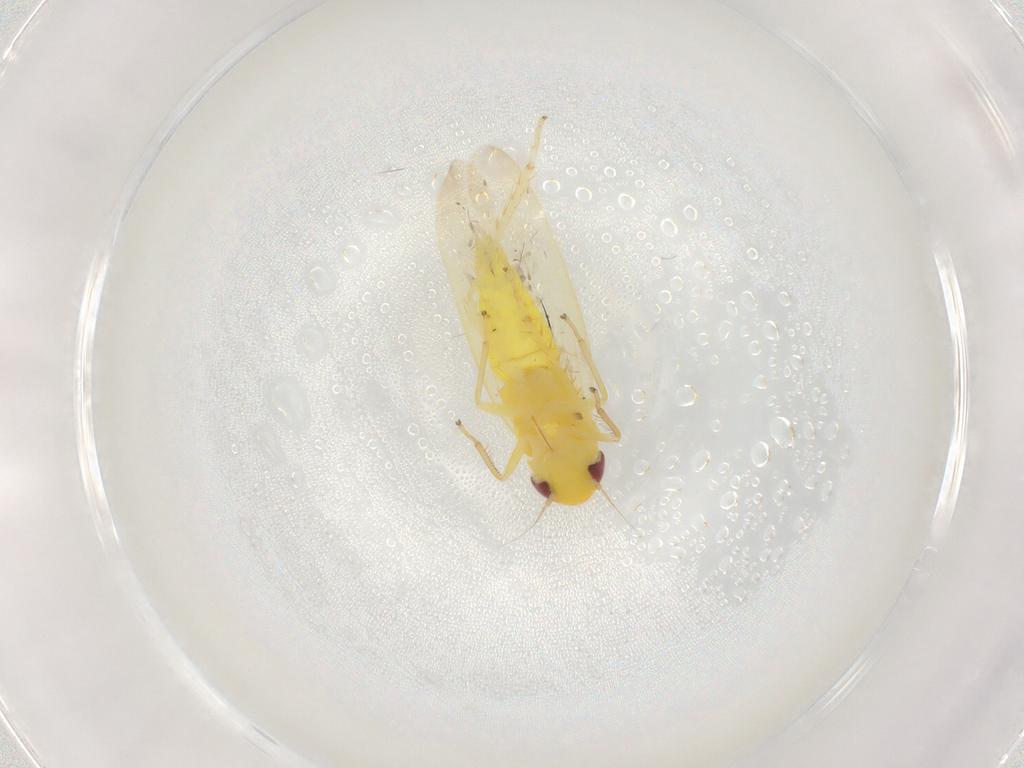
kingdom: Animalia
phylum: Arthropoda
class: Insecta
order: Hemiptera
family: Cicadellidae
